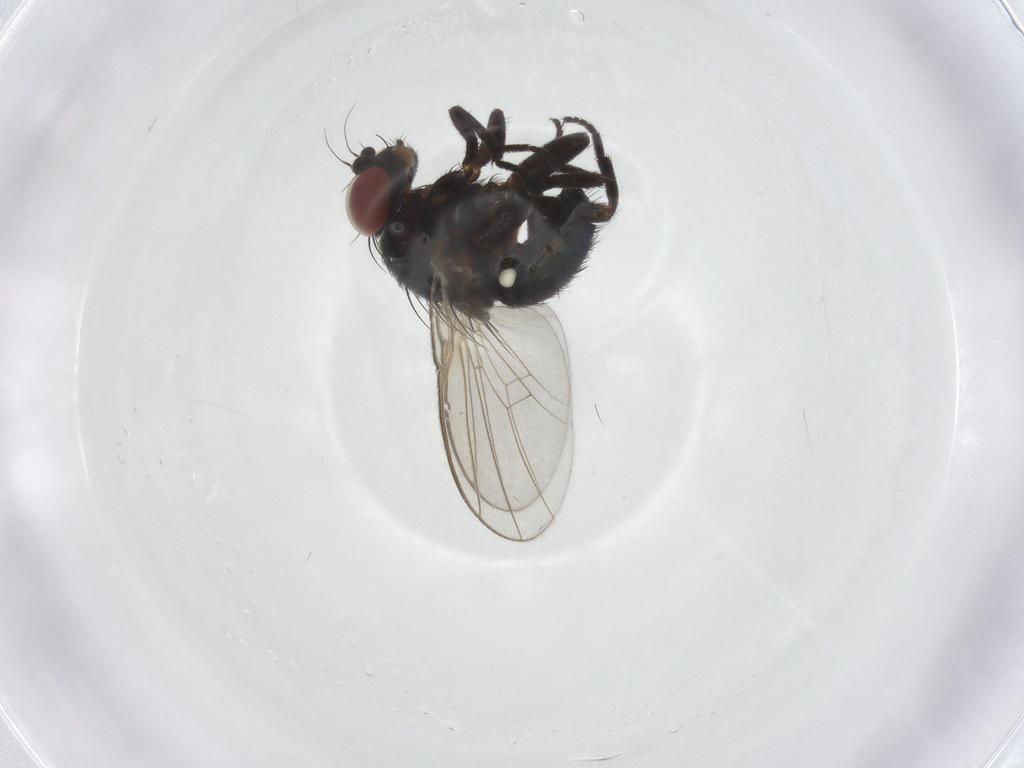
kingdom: Animalia
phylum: Arthropoda
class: Insecta
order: Diptera
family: Agromyzidae
